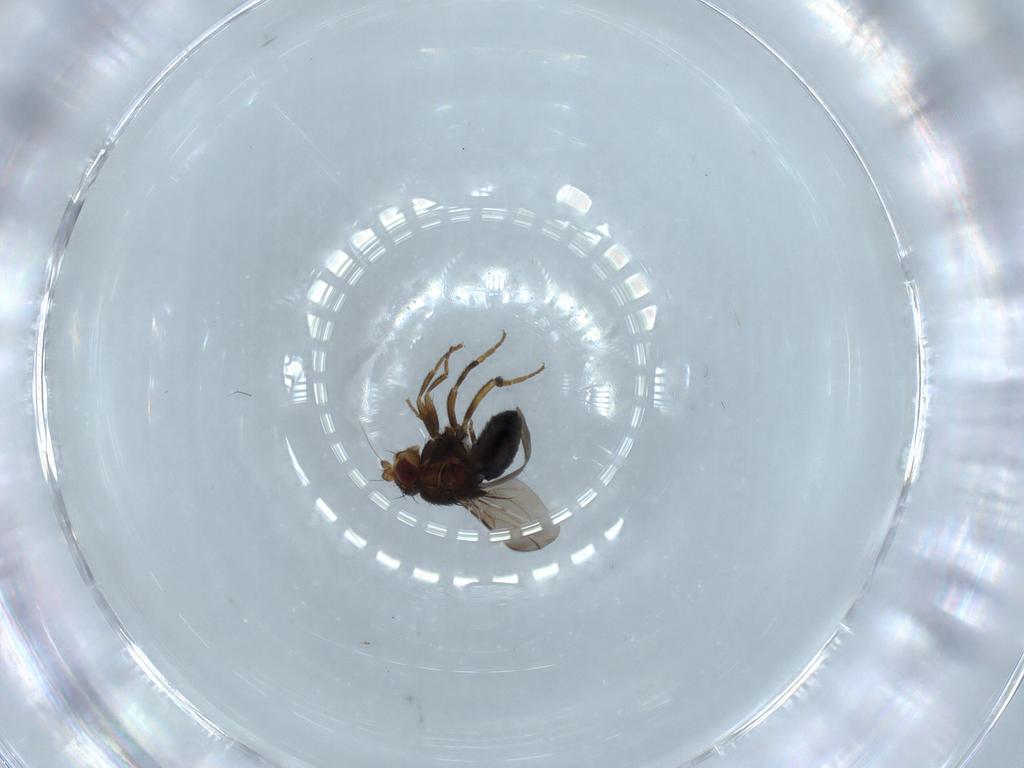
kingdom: Animalia
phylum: Arthropoda
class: Insecta
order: Diptera
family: Sphaeroceridae
